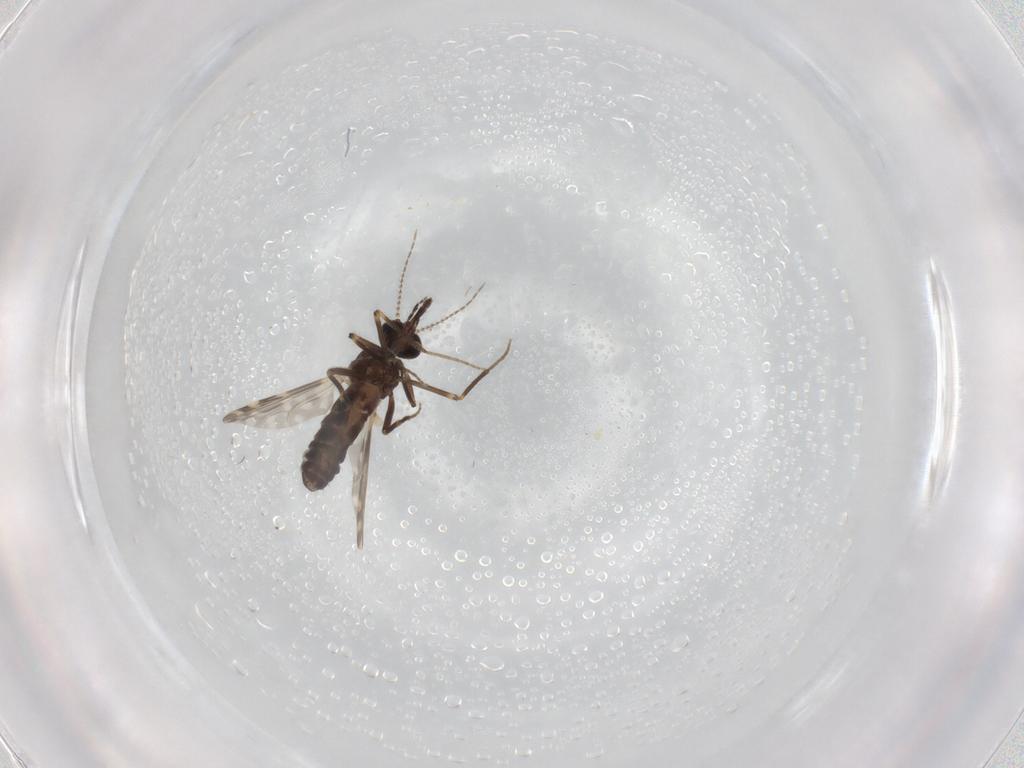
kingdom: Animalia
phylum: Arthropoda
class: Insecta
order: Diptera
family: Ceratopogonidae
